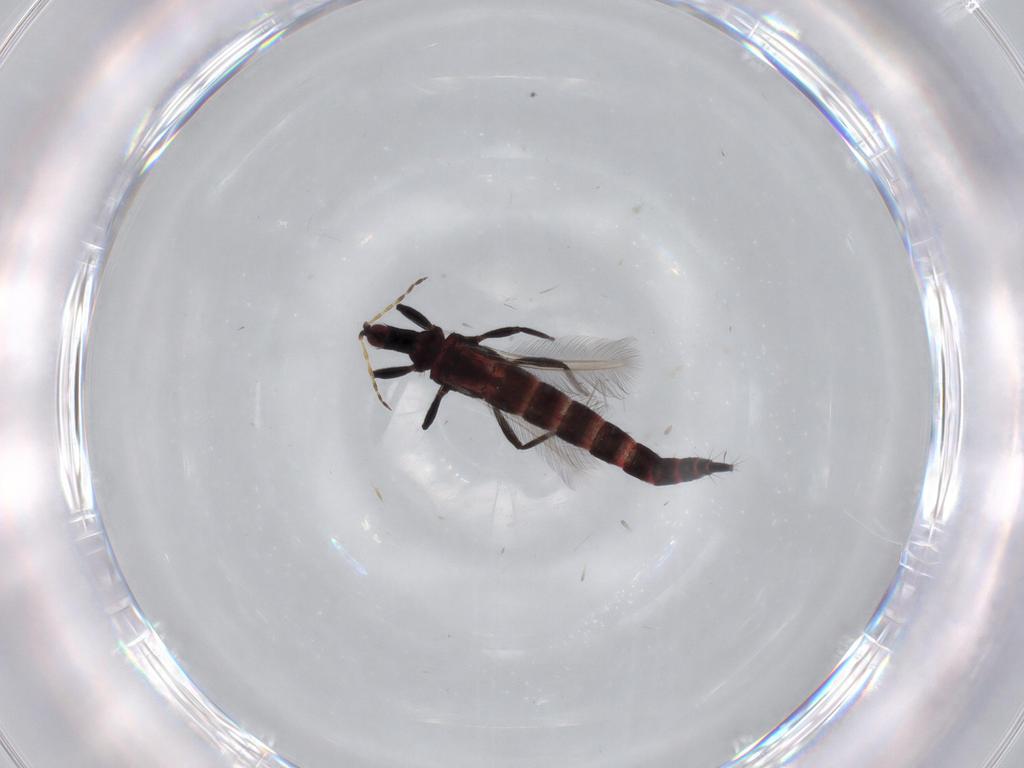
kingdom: Animalia
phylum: Arthropoda
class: Insecta
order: Thysanoptera
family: Phlaeothripidae
